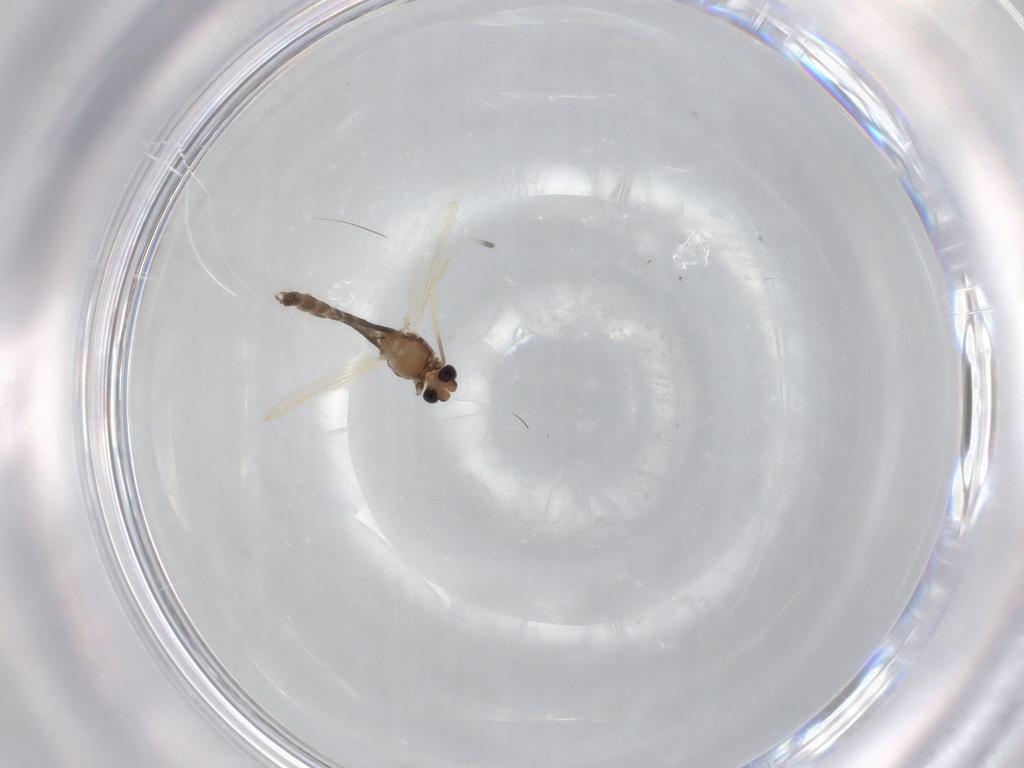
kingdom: Animalia
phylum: Arthropoda
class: Insecta
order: Diptera
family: Chironomidae
